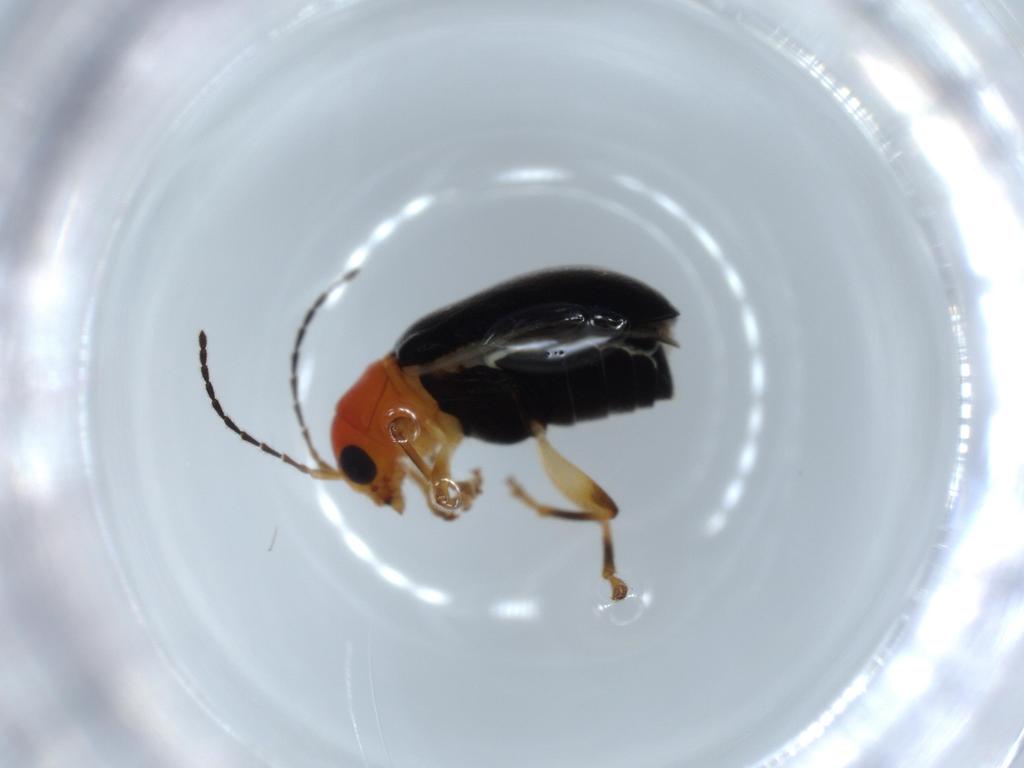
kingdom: Animalia
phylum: Arthropoda
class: Insecta
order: Coleoptera
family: Chrysomelidae
